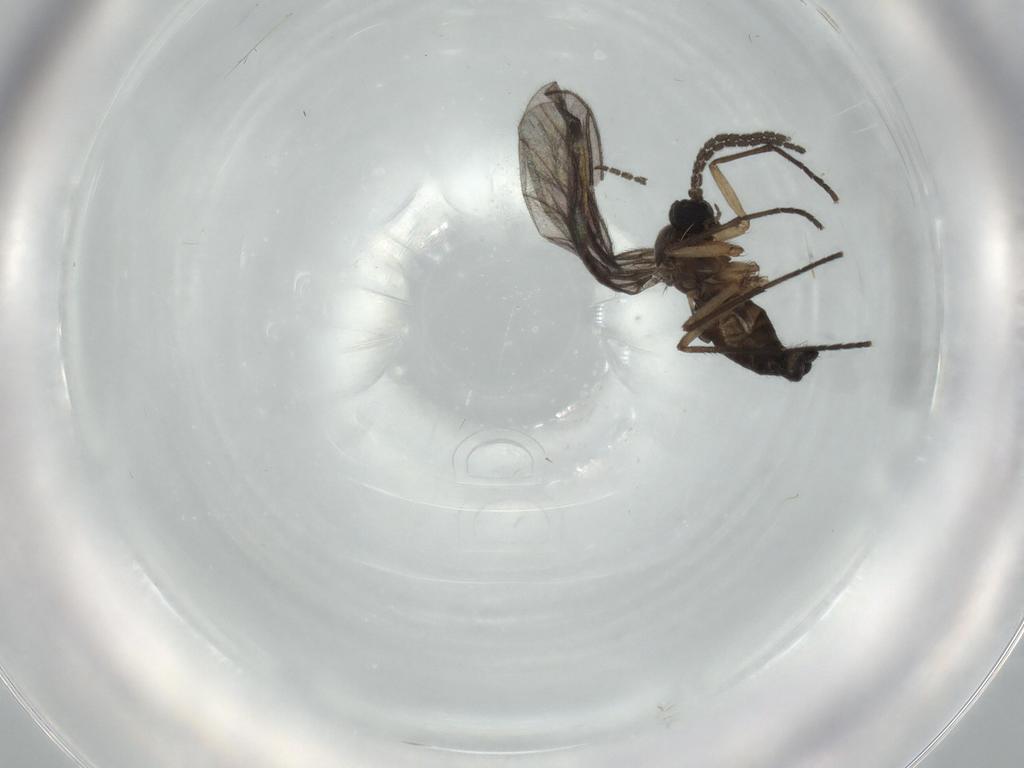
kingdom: Animalia
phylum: Arthropoda
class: Insecta
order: Diptera
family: Sciaridae
